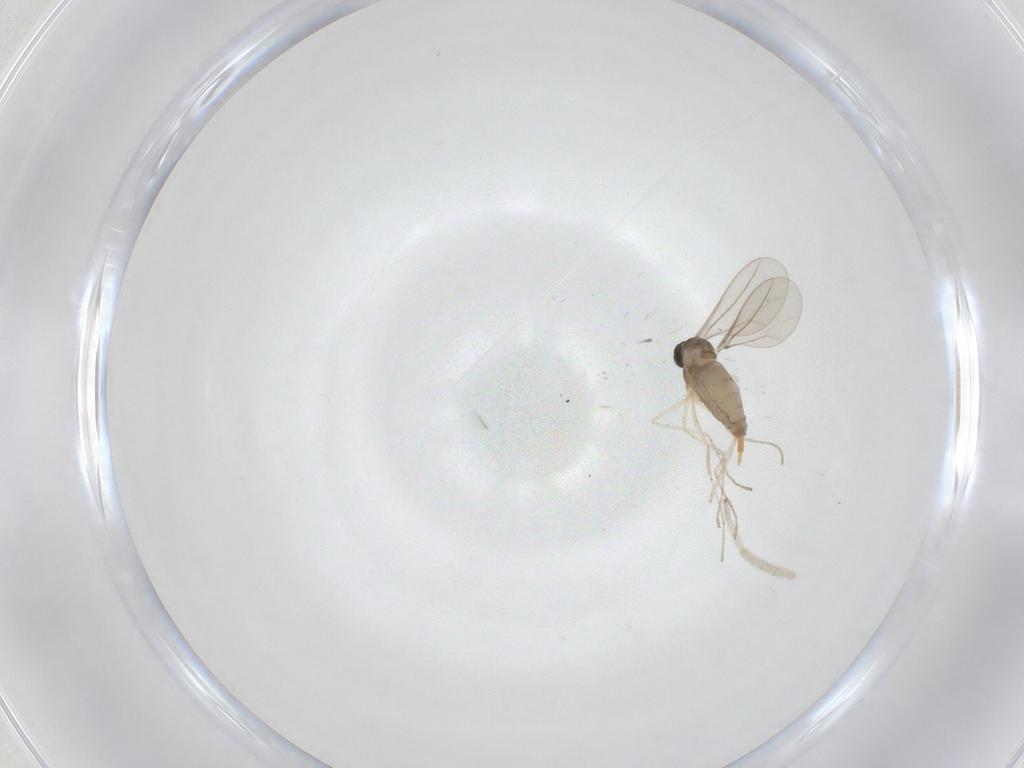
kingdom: Animalia
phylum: Arthropoda
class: Insecta
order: Diptera
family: Cecidomyiidae
